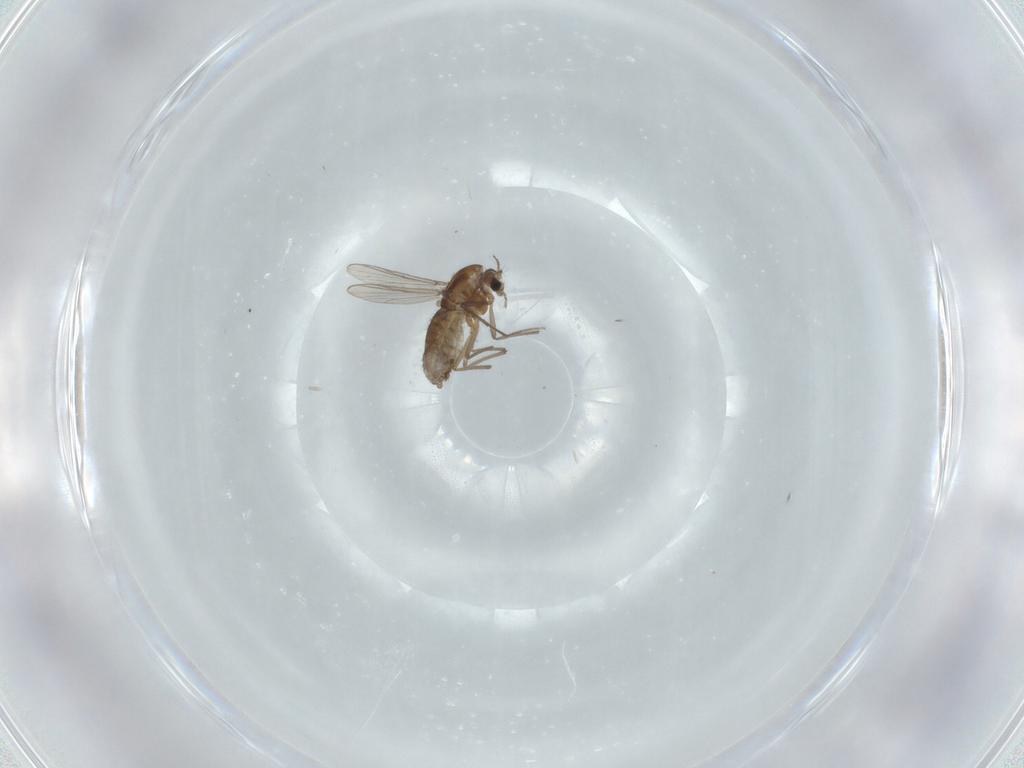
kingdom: Animalia
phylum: Arthropoda
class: Insecta
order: Diptera
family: Chironomidae
